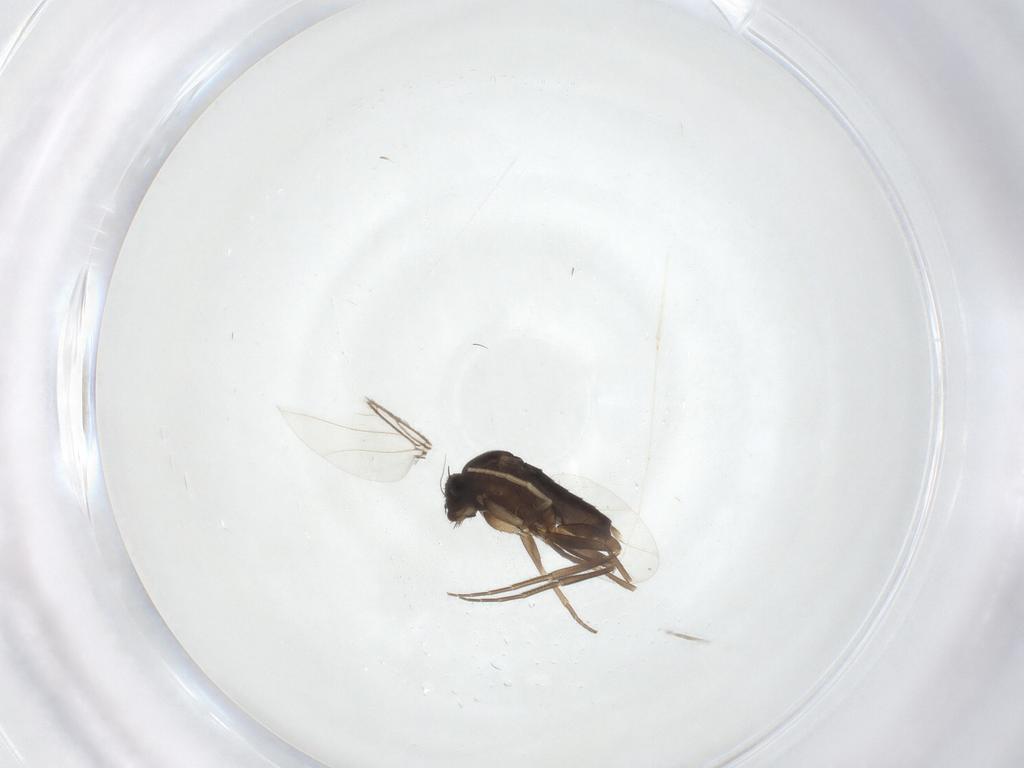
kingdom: Animalia
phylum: Arthropoda
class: Insecta
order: Diptera
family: Phoridae
